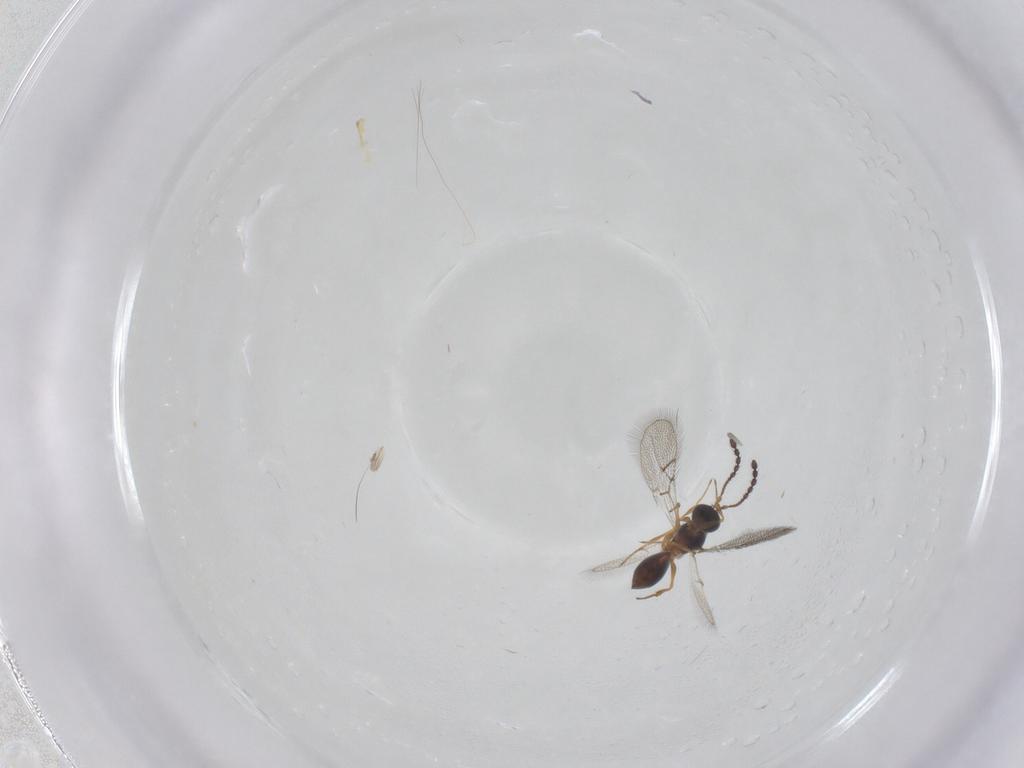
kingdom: Animalia
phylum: Arthropoda
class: Insecta
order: Hymenoptera
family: Figitidae
